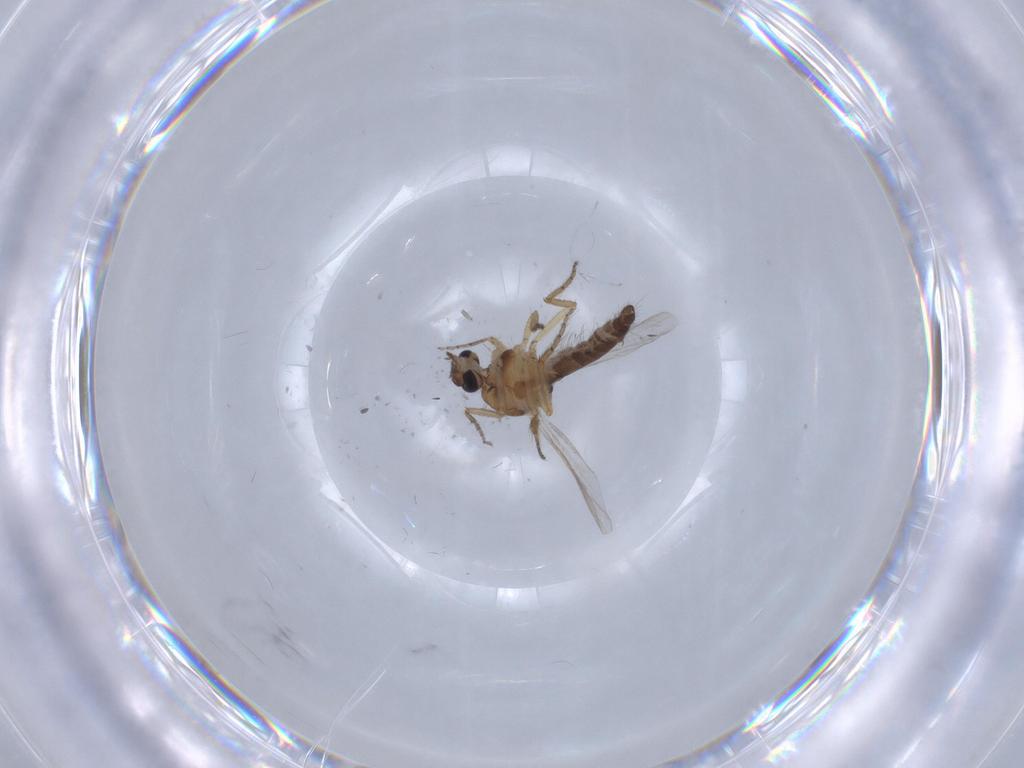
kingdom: Animalia
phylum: Arthropoda
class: Insecta
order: Diptera
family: Ceratopogonidae
